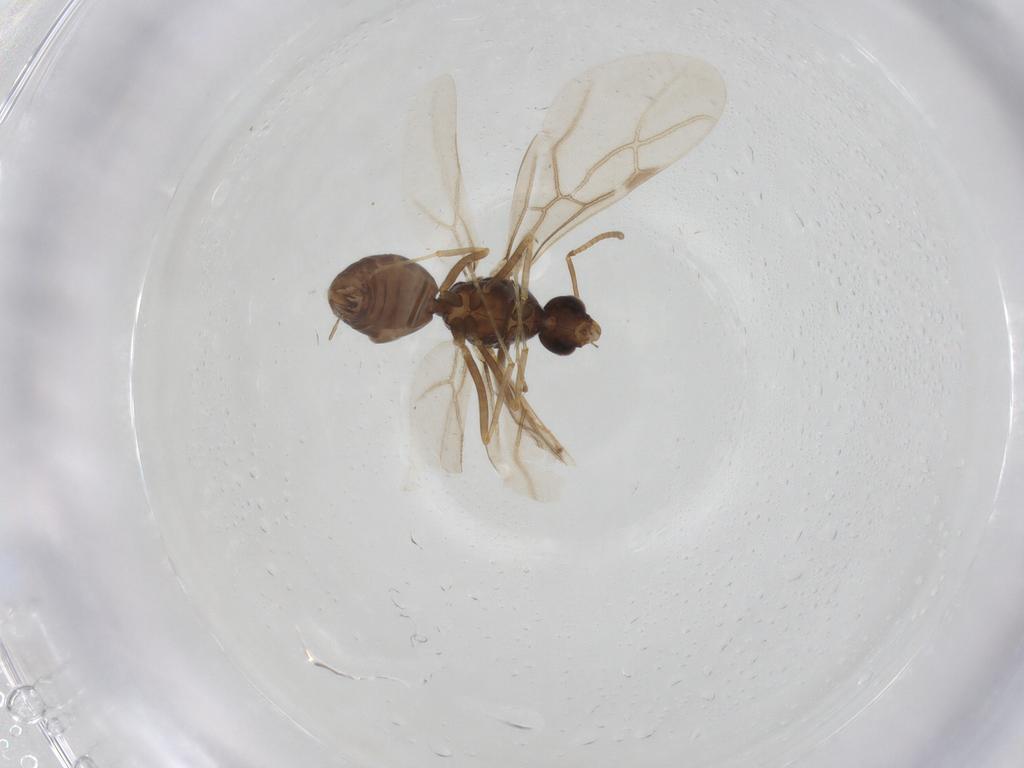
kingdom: Animalia
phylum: Arthropoda
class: Insecta
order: Hymenoptera
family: Formicidae
